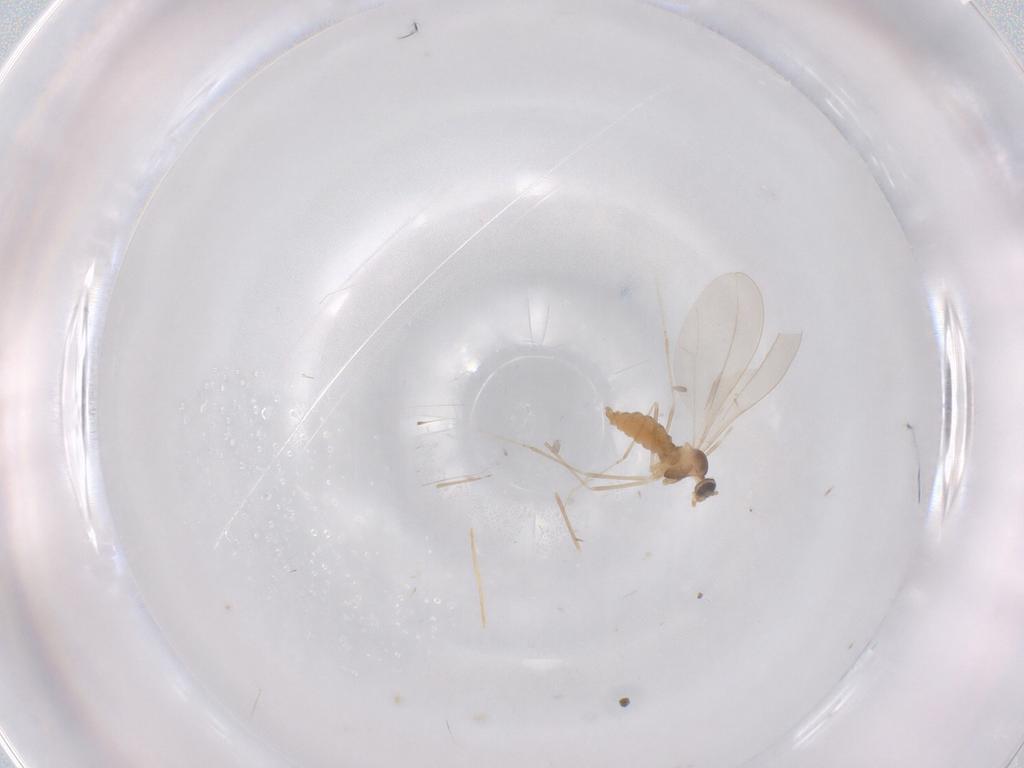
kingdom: Animalia
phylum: Arthropoda
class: Insecta
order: Diptera
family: Cecidomyiidae
